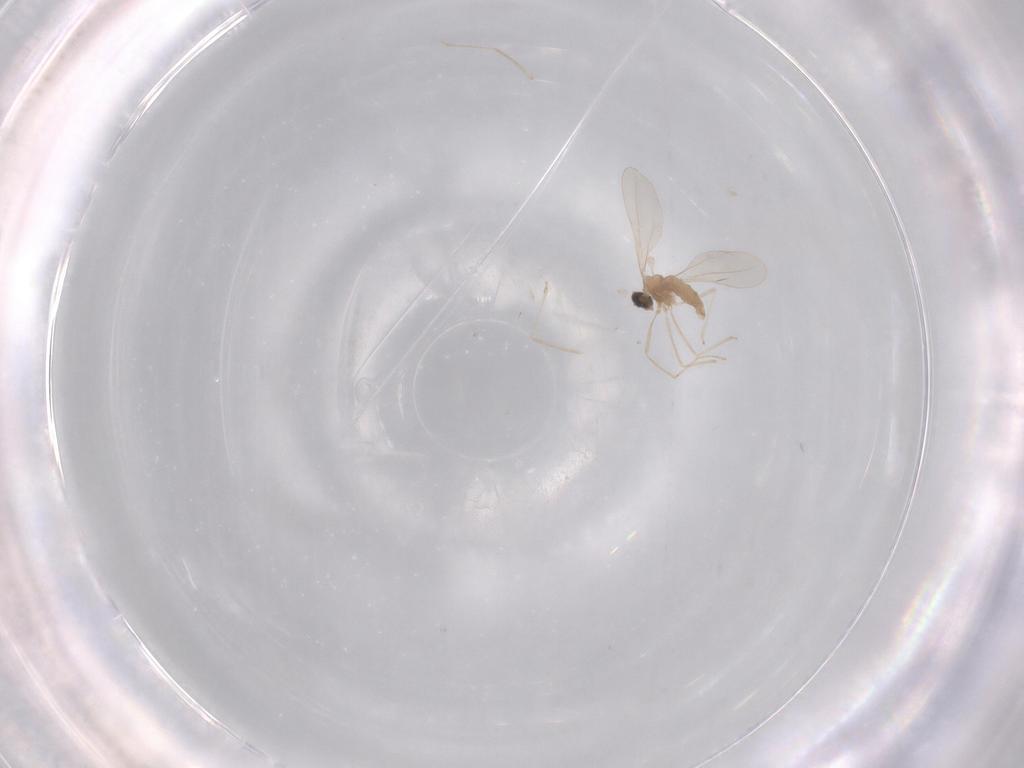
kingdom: Animalia
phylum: Arthropoda
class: Insecta
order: Diptera
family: Cecidomyiidae
